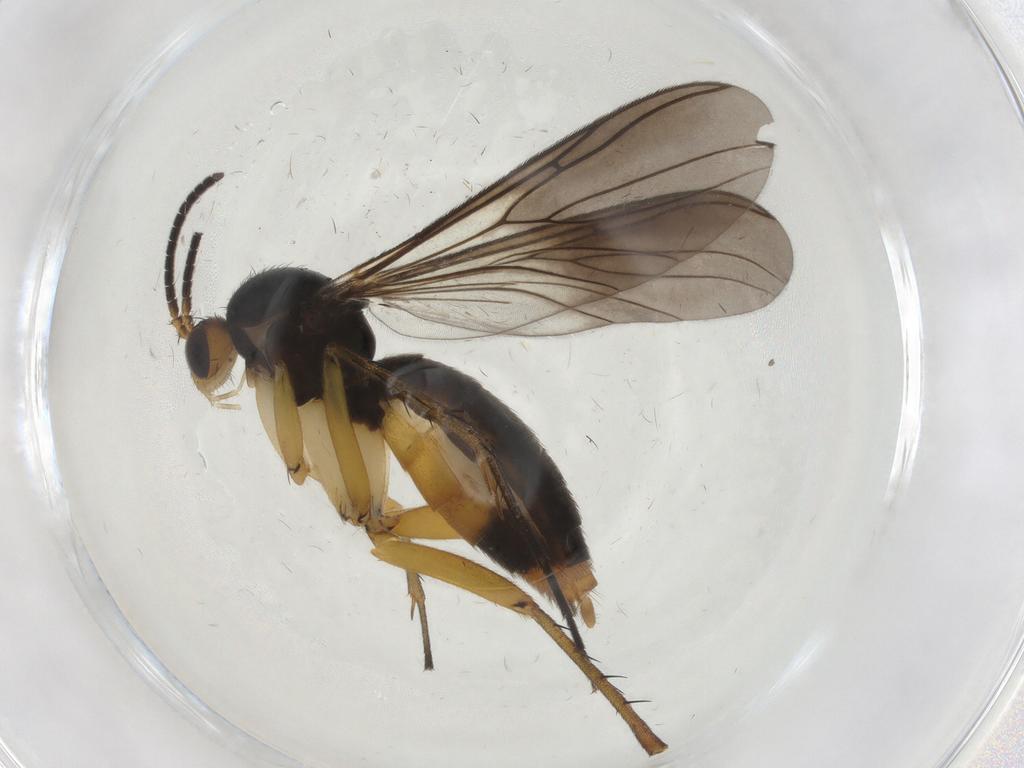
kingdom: Animalia
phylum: Arthropoda
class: Insecta
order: Diptera
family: Mycetophilidae
